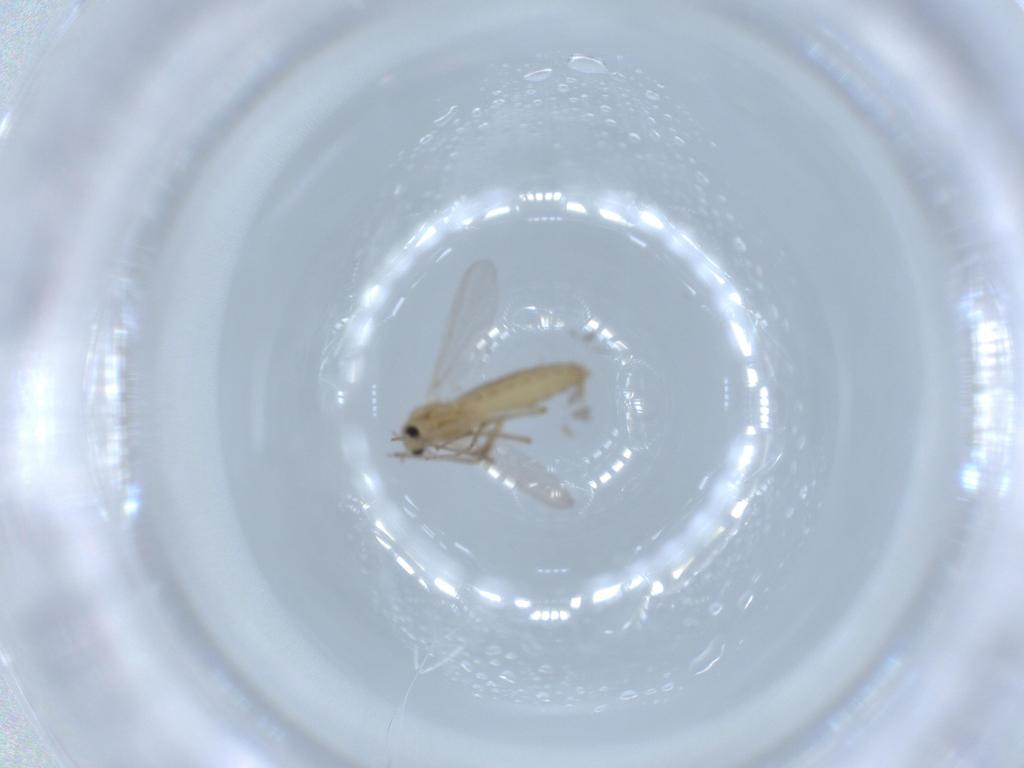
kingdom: Animalia
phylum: Arthropoda
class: Insecta
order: Diptera
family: Chironomidae
